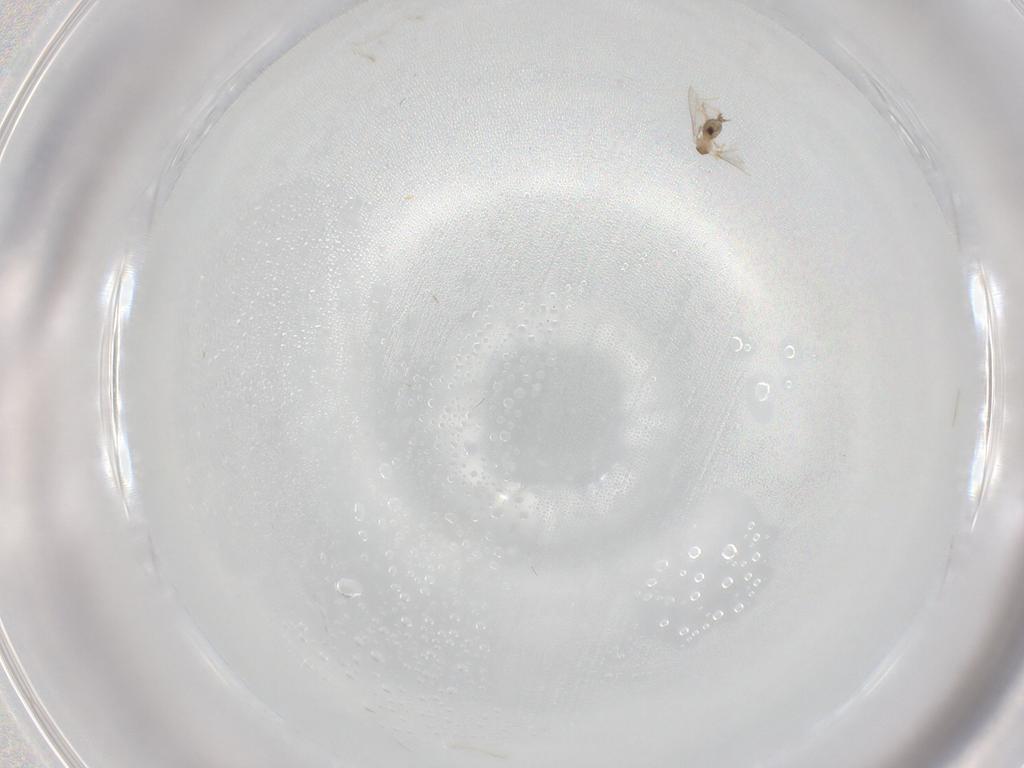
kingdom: Animalia
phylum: Arthropoda
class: Insecta
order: Diptera
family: Cecidomyiidae
